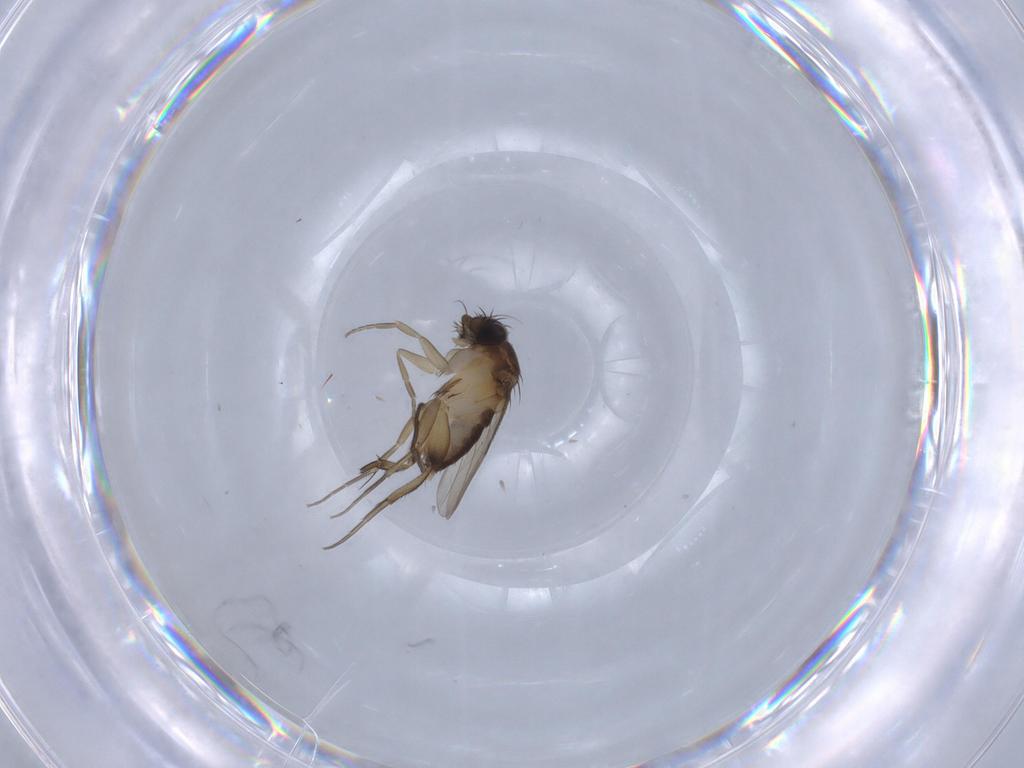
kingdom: Animalia
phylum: Arthropoda
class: Insecta
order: Diptera
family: Phoridae
